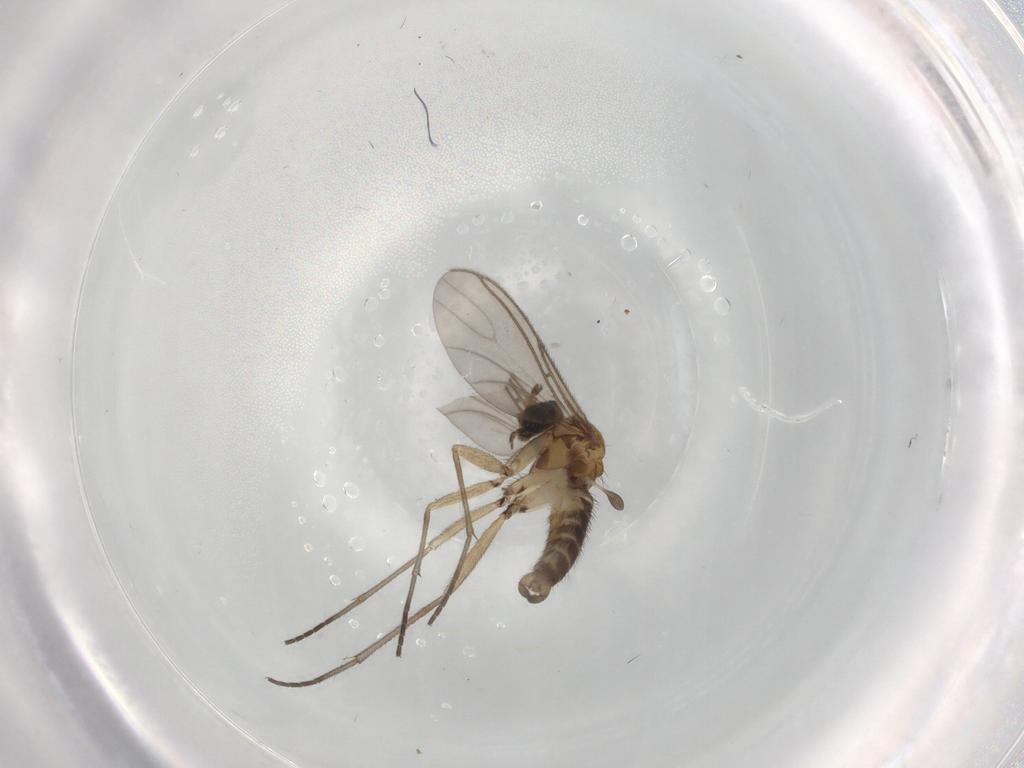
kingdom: Animalia
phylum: Arthropoda
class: Insecta
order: Diptera
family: Sciaridae
